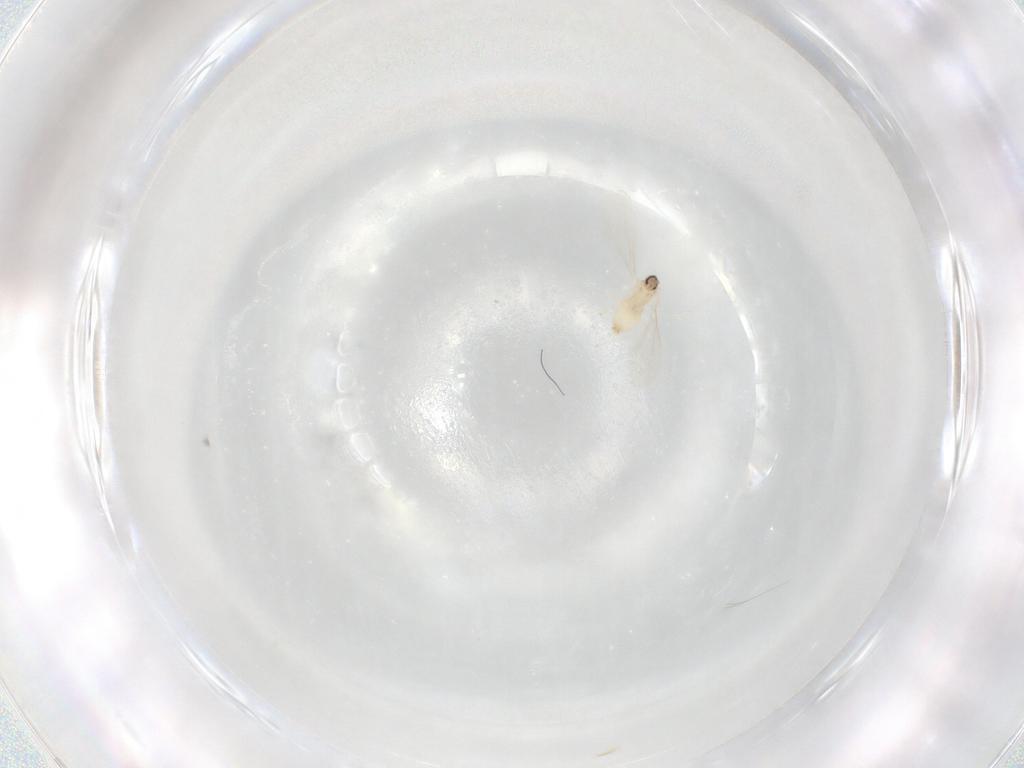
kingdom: Animalia
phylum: Arthropoda
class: Insecta
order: Diptera
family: Cecidomyiidae
